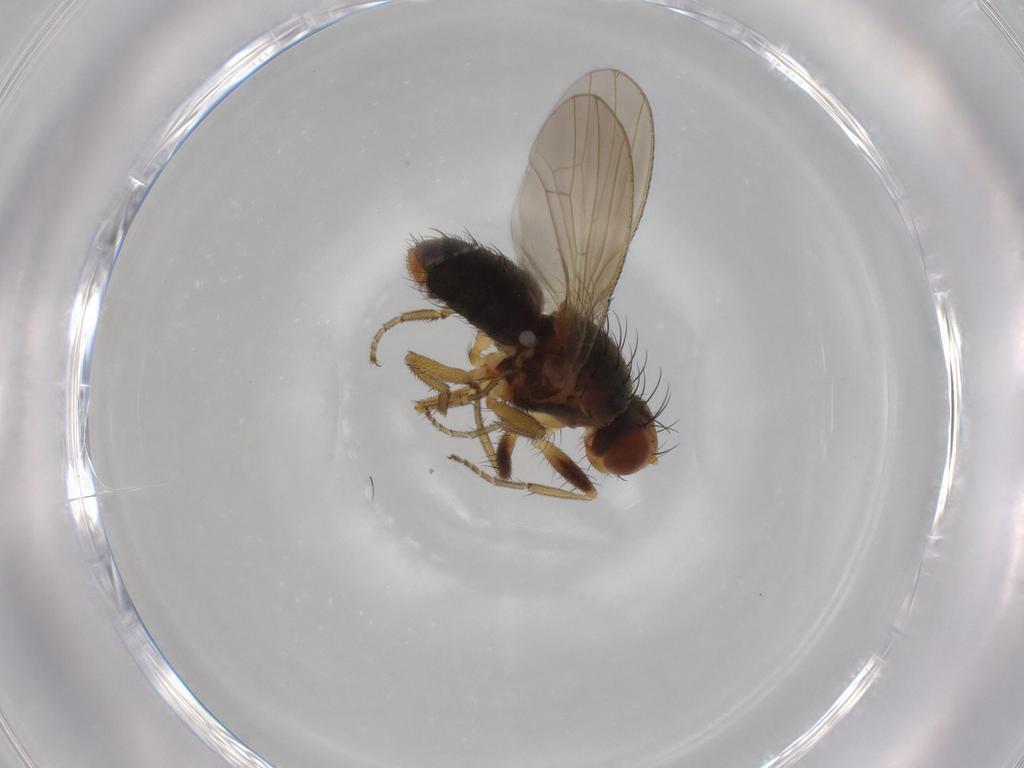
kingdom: Animalia
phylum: Arthropoda
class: Insecta
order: Diptera
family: Heleomyzidae
